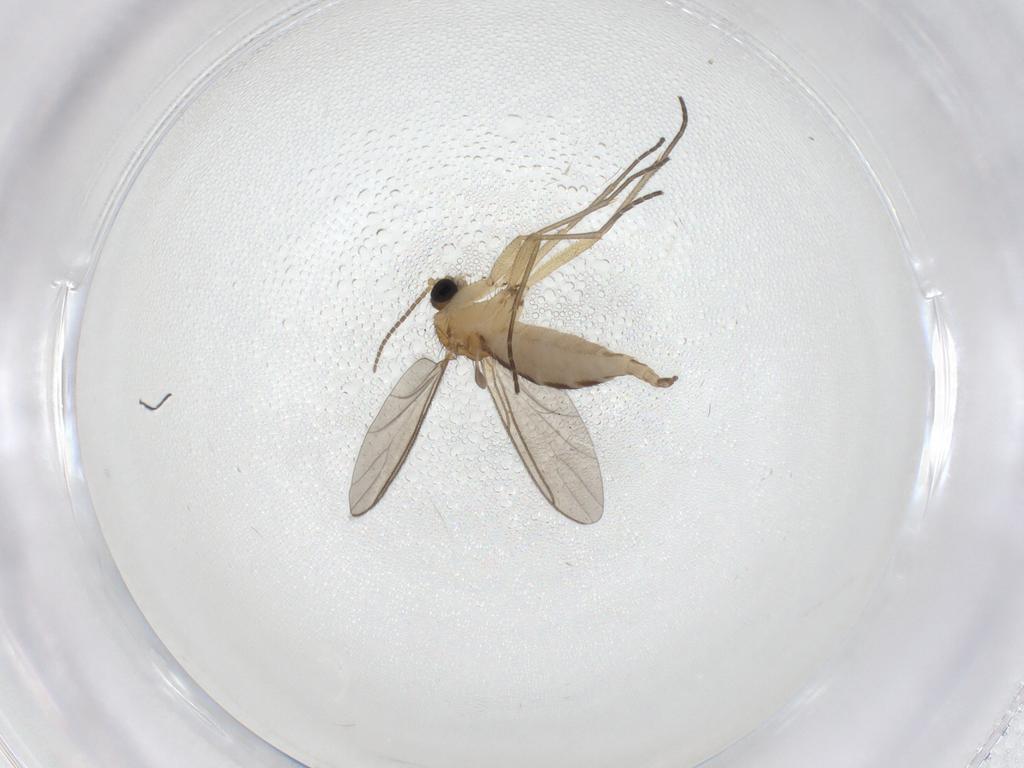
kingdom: Animalia
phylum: Arthropoda
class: Insecta
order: Diptera
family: Sciaridae
